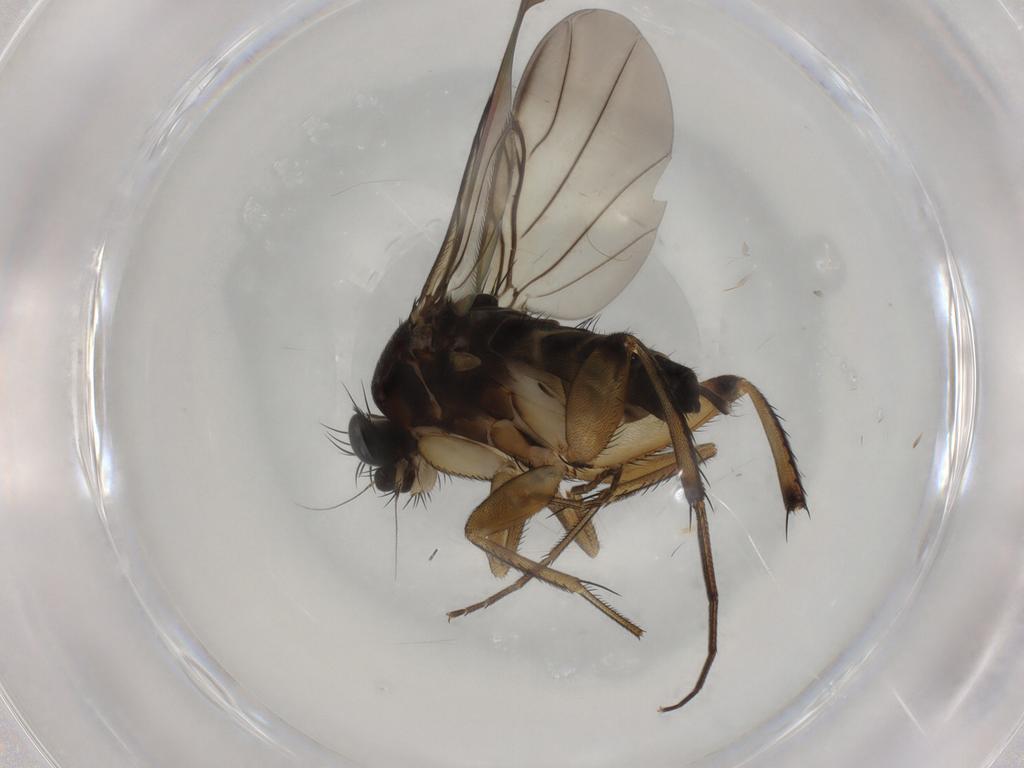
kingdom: Animalia
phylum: Arthropoda
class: Insecta
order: Diptera
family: Phoridae
